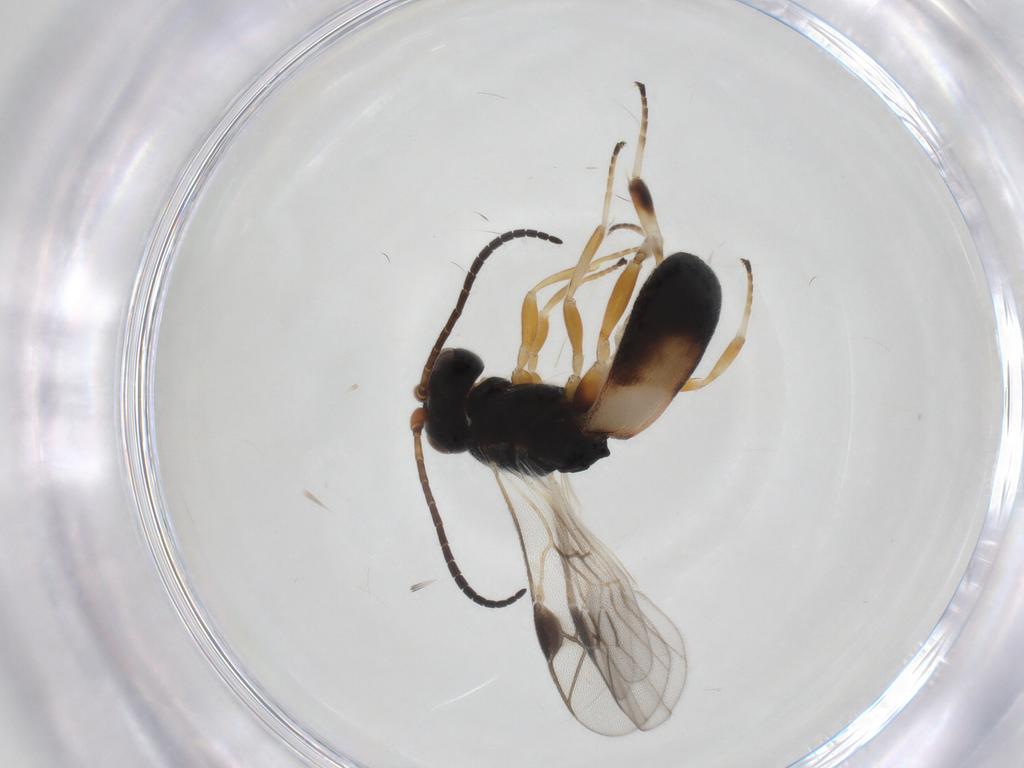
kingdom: Animalia
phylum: Arthropoda
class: Insecta
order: Hymenoptera
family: Braconidae
